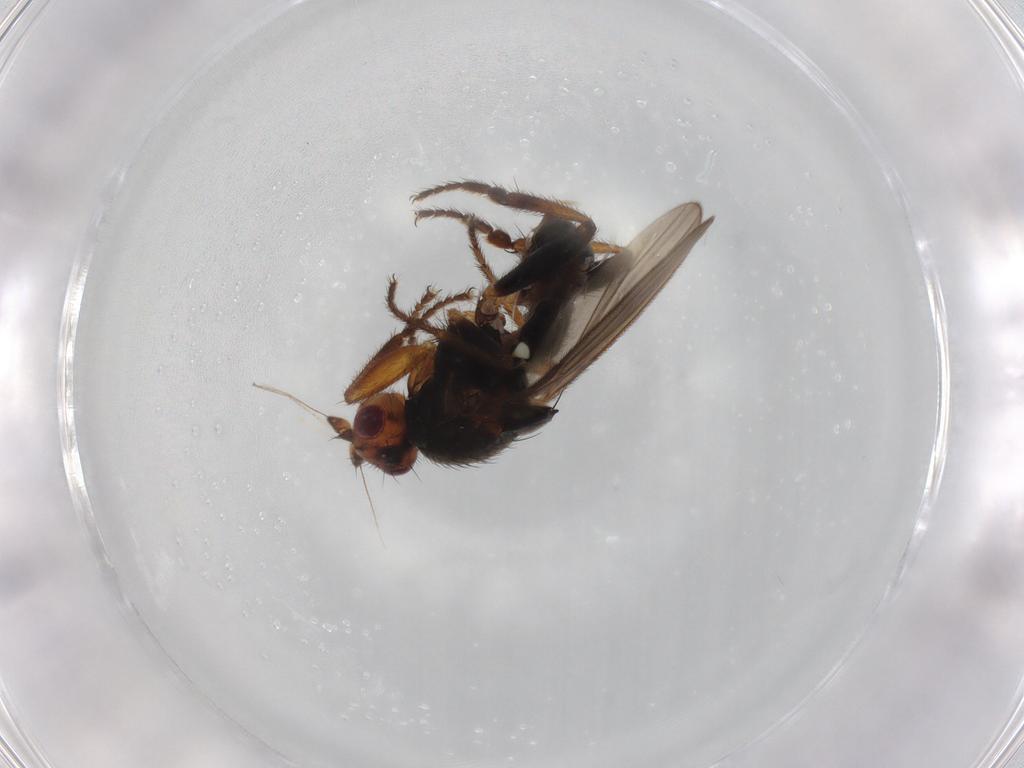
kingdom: Animalia
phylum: Arthropoda
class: Insecta
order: Diptera
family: Sphaeroceridae
